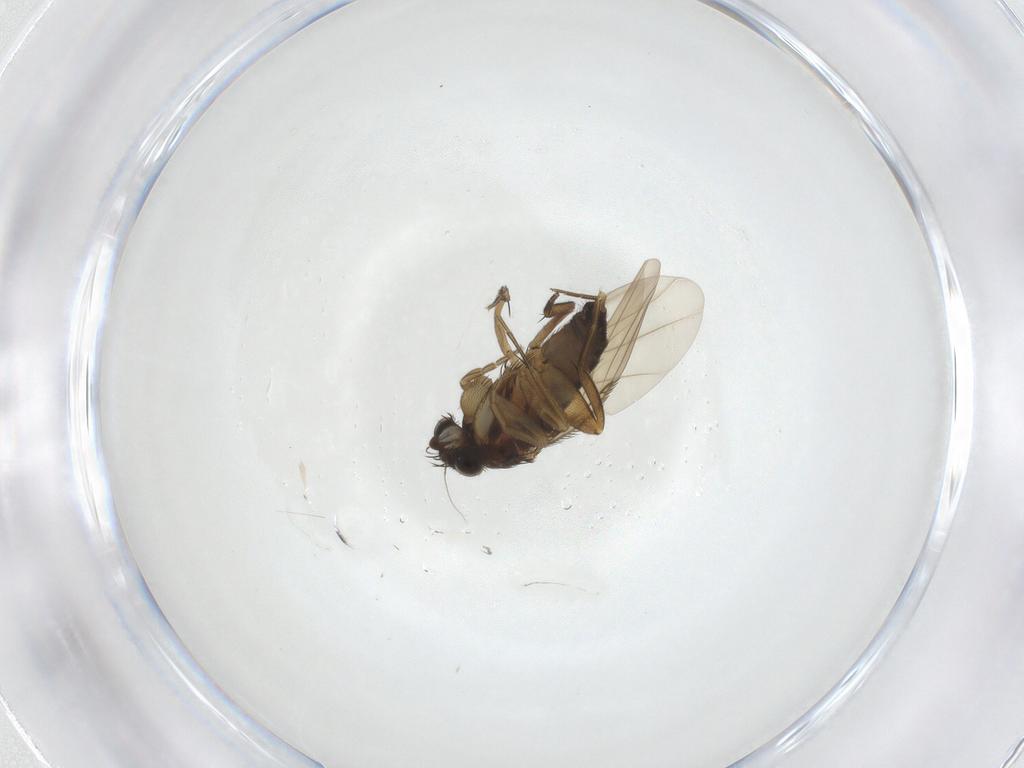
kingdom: Animalia
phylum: Arthropoda
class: Insecta
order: Diptera
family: Phoridae
